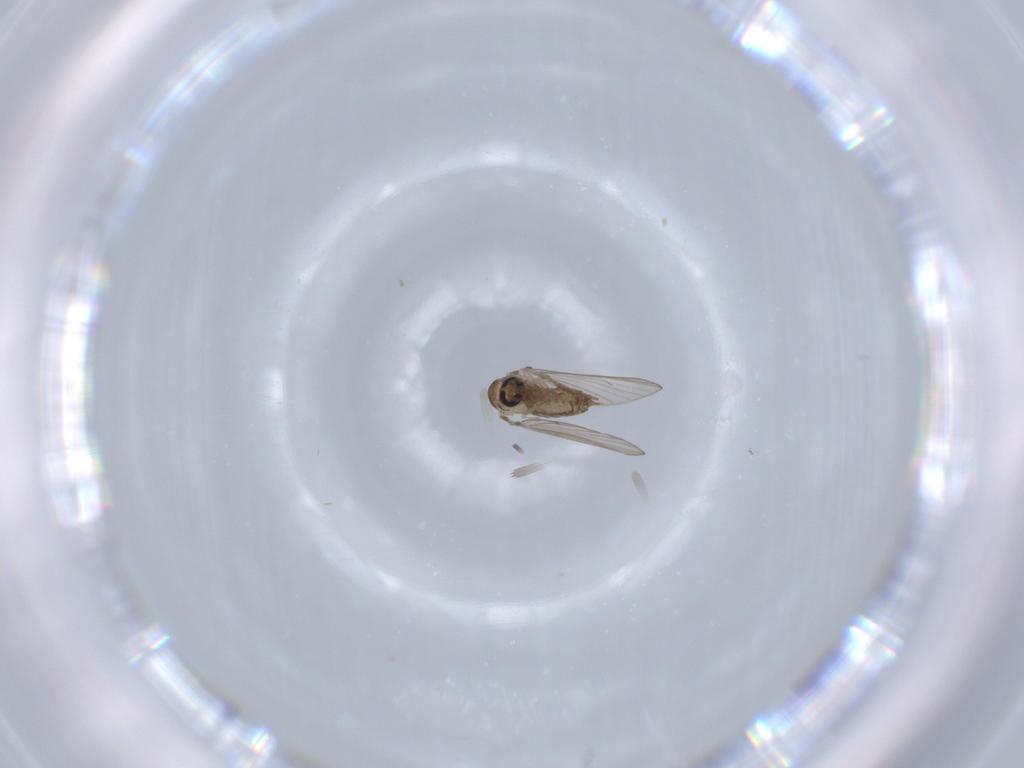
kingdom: Animalia
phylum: Arthropoda
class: Insecta
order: Diptera
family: Psychodidae
